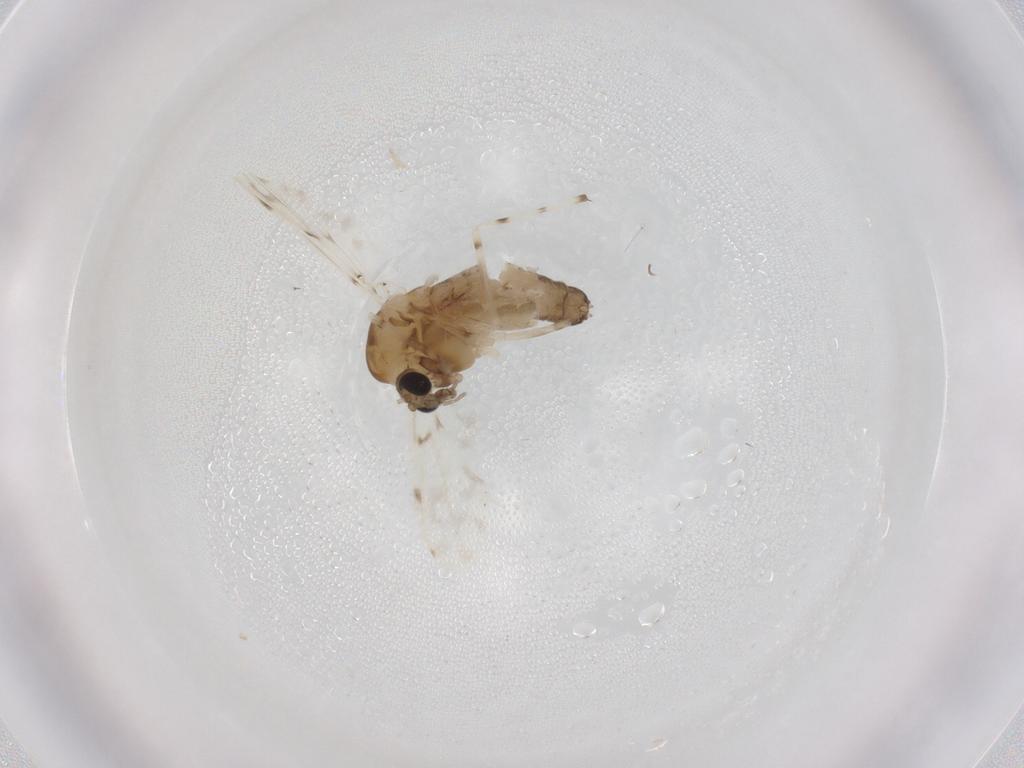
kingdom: Animalia
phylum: Arthropoda
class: Insecta
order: Diptera
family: Chironomidae
